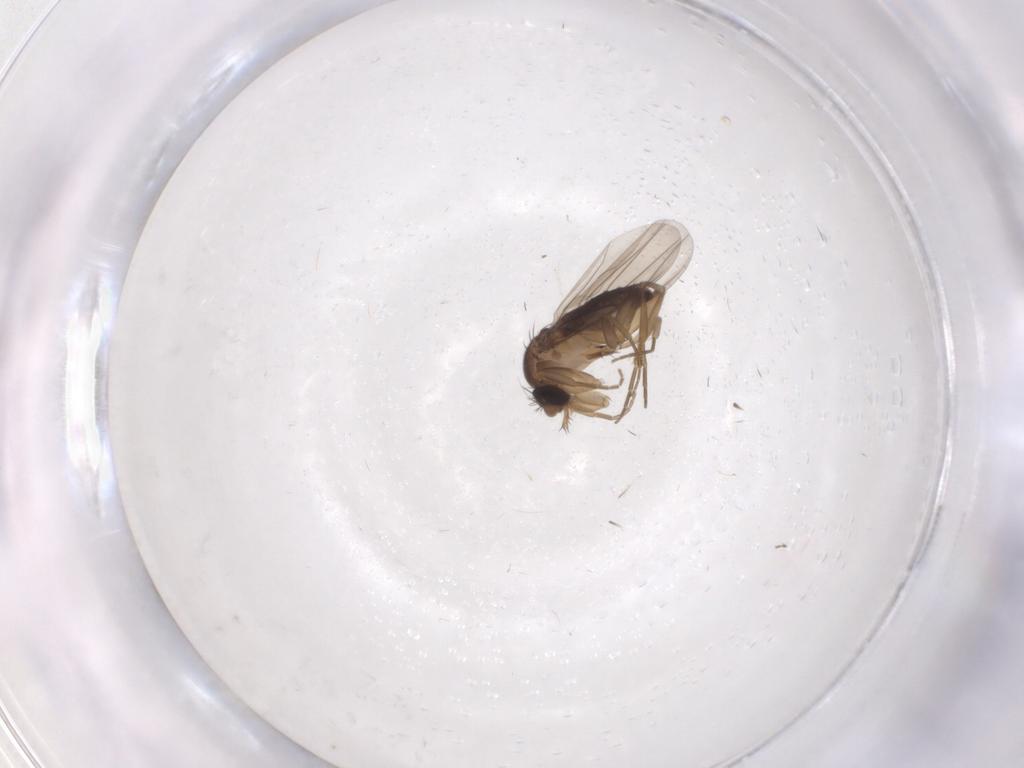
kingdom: Animalia
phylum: Arthropoda
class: Insecta
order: Diptera
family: Phoridae
